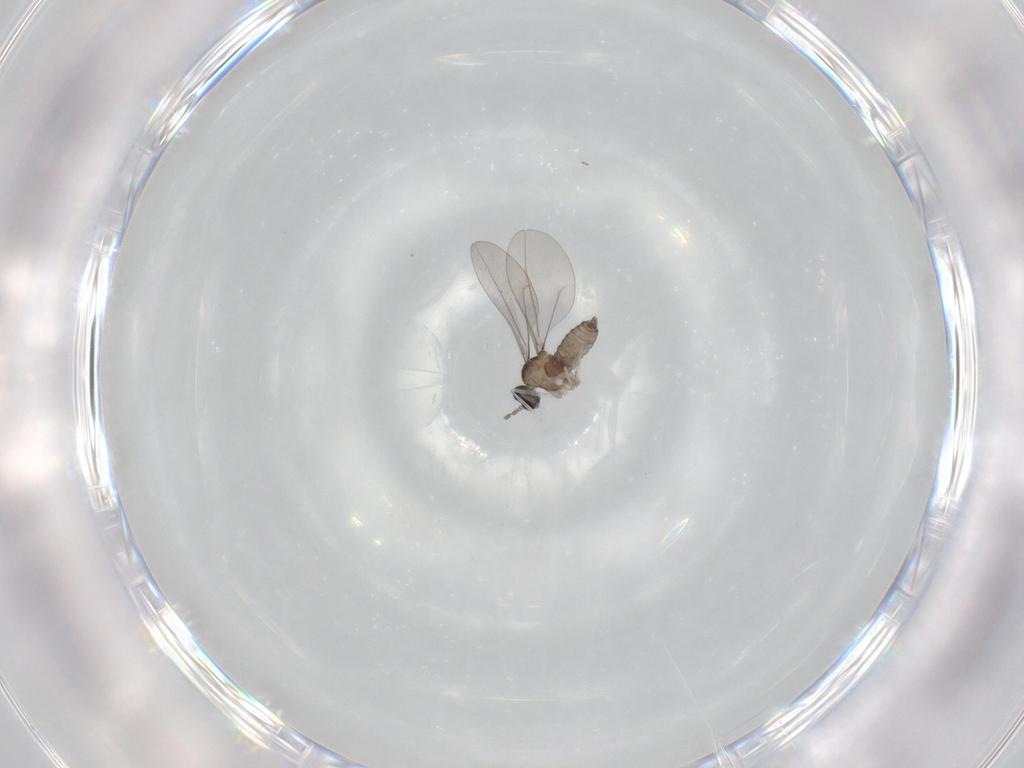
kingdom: Animalia
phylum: Arthropoda
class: Insecta
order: Diptera
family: Cecidomyiidae
